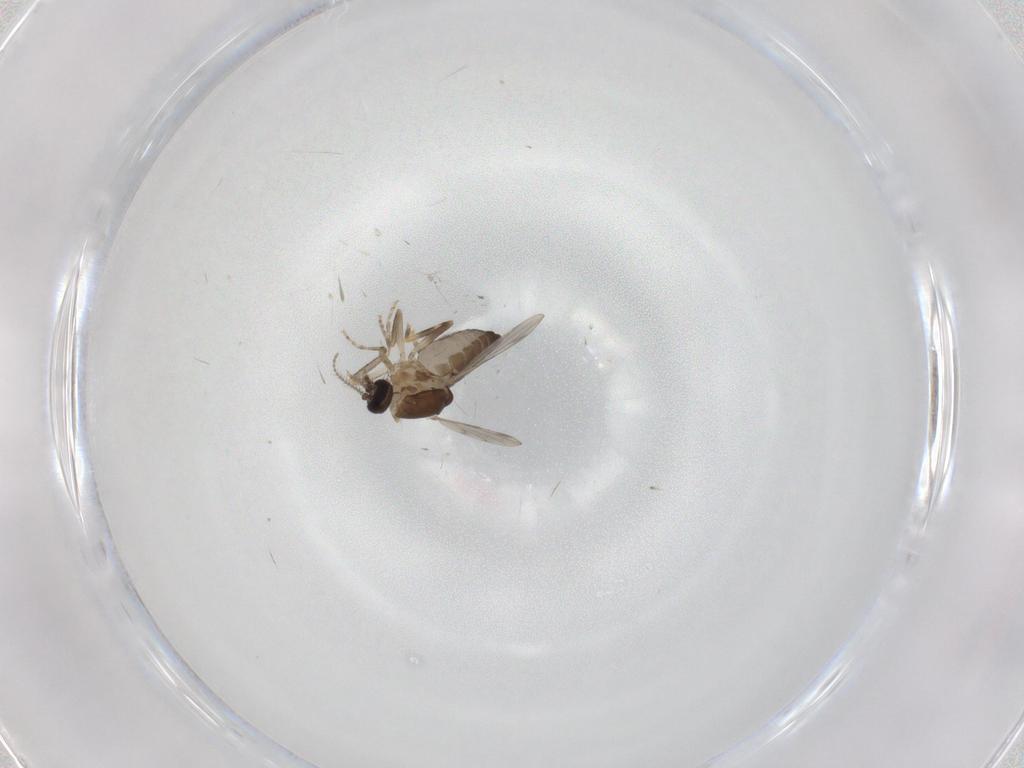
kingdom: Animalia
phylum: Arthropoda
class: Insecta
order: Diptera
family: Ceratopogonidae
